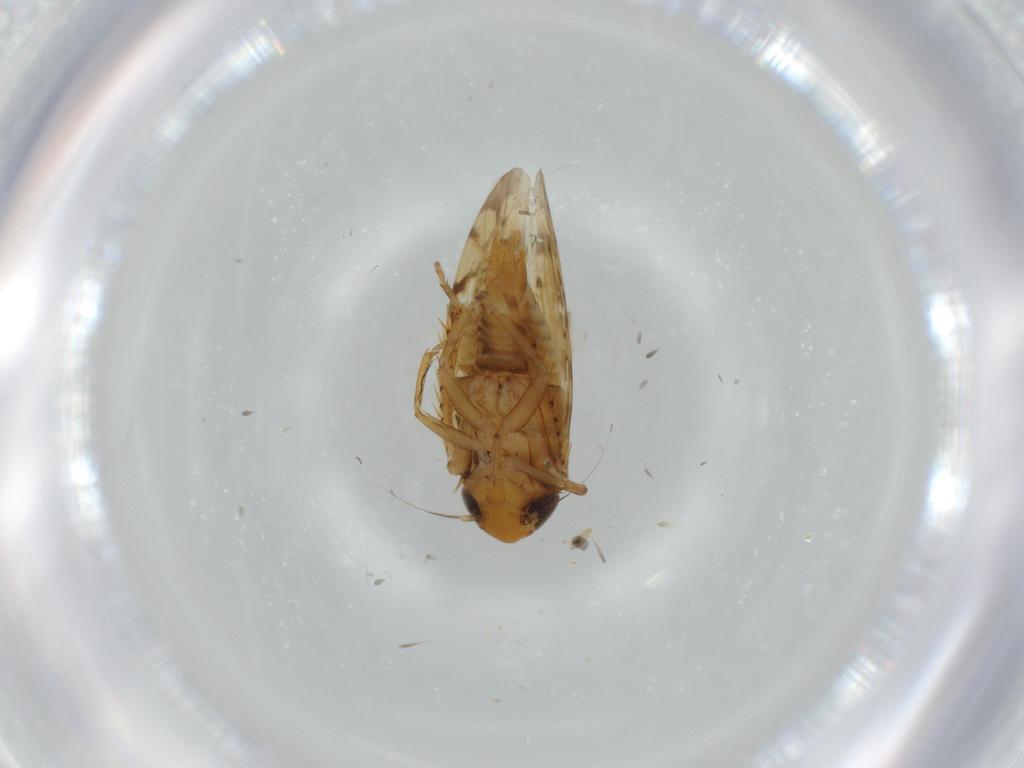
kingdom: Animalia
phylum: Arthropoda
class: Insecta
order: Hemiptera
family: Cicadellidae
